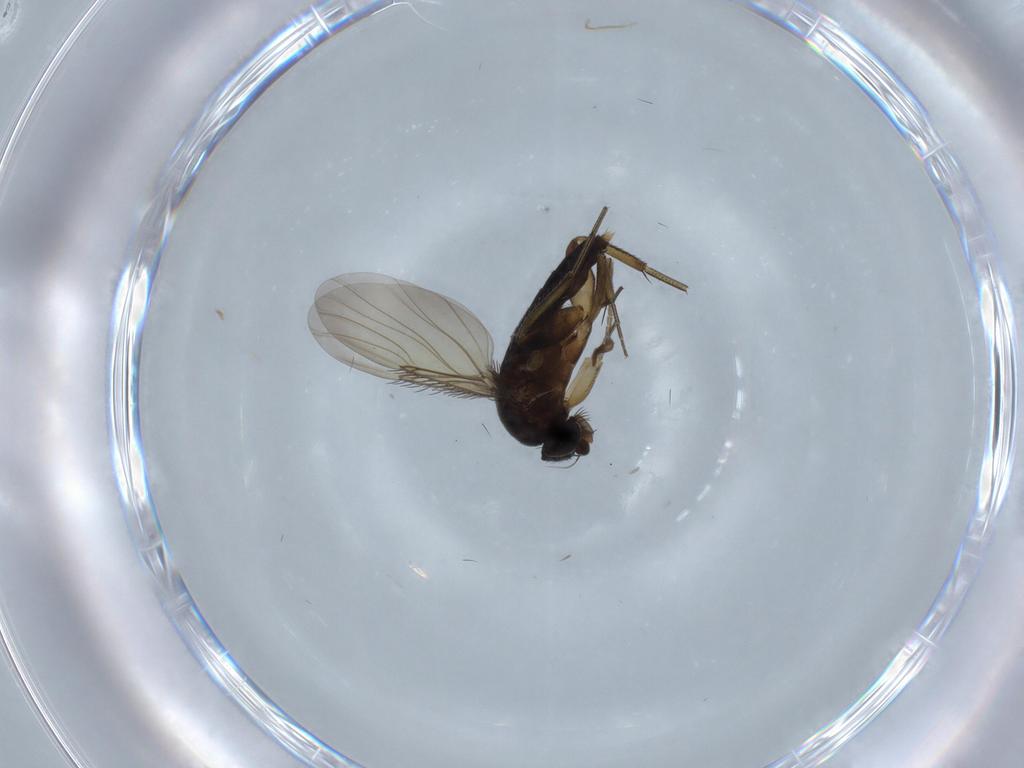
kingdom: Animalia
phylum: Arthropoda
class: Insecta
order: Diptera
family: Phoridae
